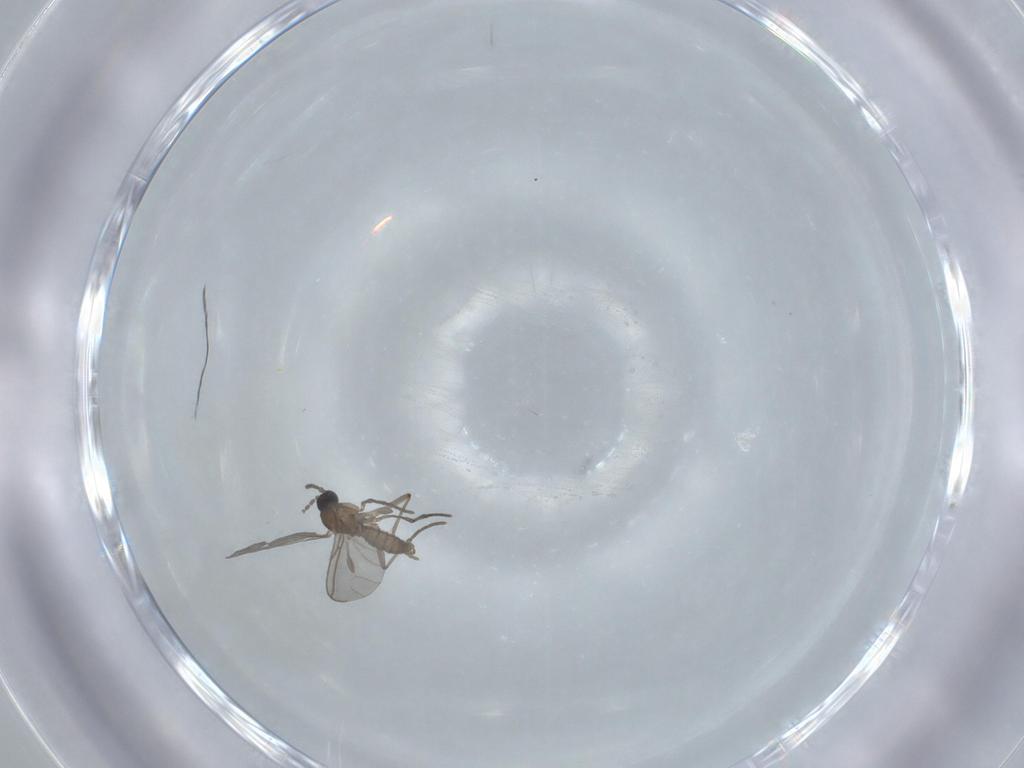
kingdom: Animalia
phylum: Arthropoda
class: Insecta
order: Diptera
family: Sciaridae
